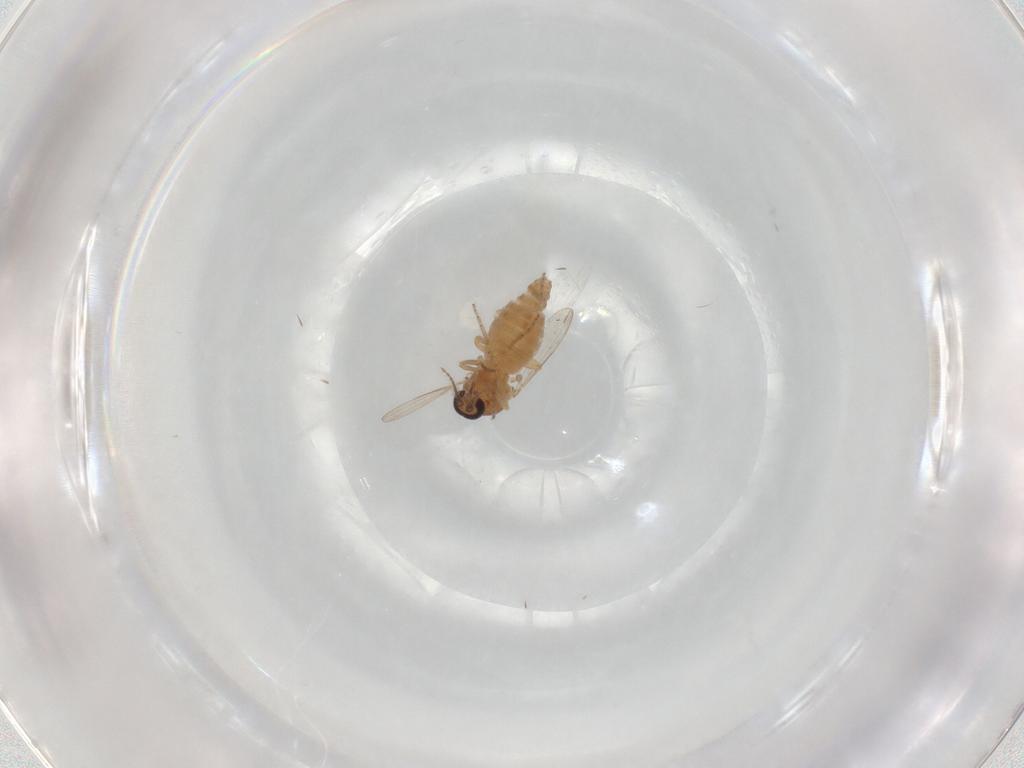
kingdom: Animalia
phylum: Arthropoda
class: Insecta
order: Diptera
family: Ceratopogonidae
